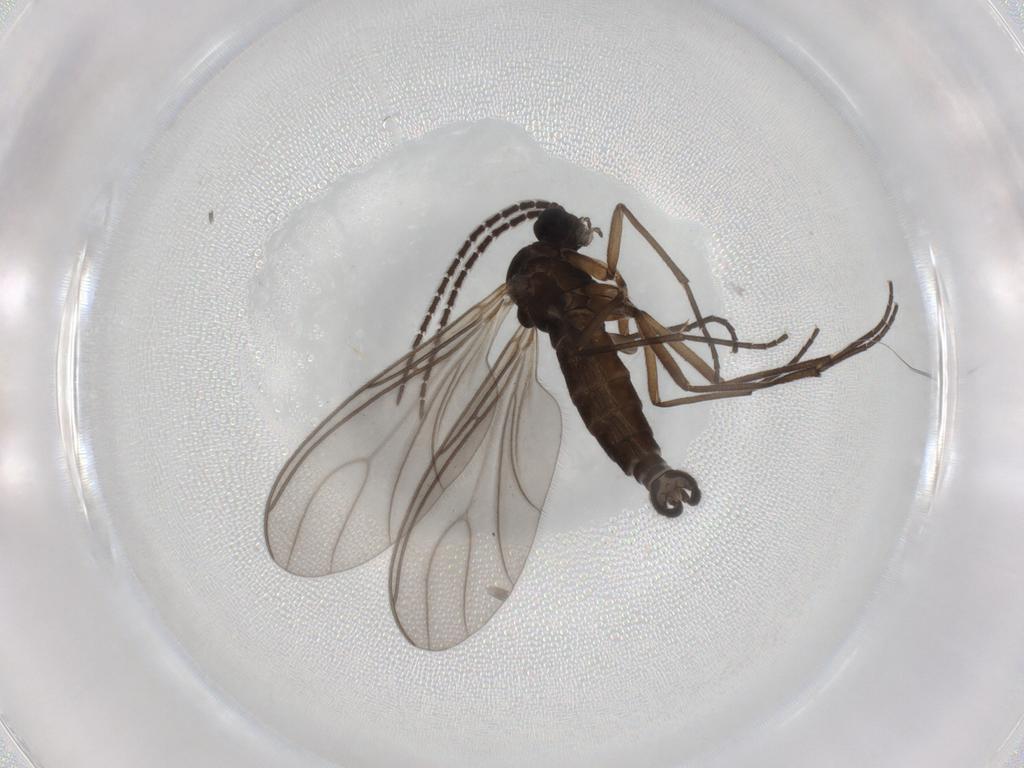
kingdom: Animalia
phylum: Arthropoda
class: Insecta
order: Diptera
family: Sciaridae
